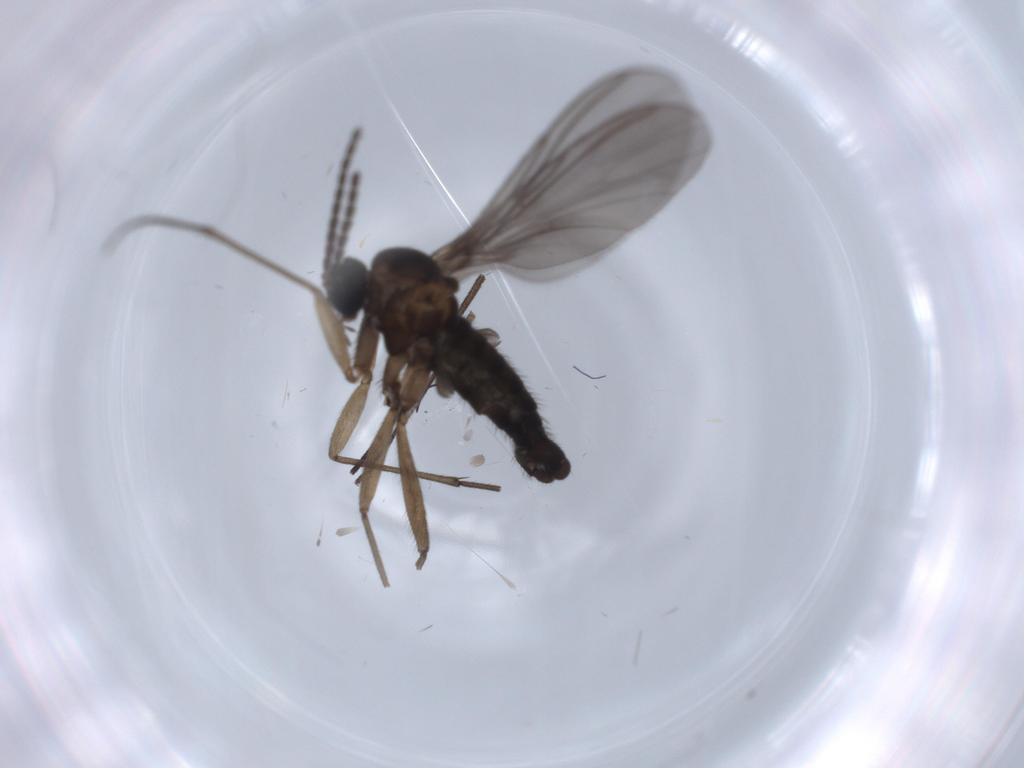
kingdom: Animalia
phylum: Arthropoda
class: Insecta
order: Diptera
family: Sciaridae
